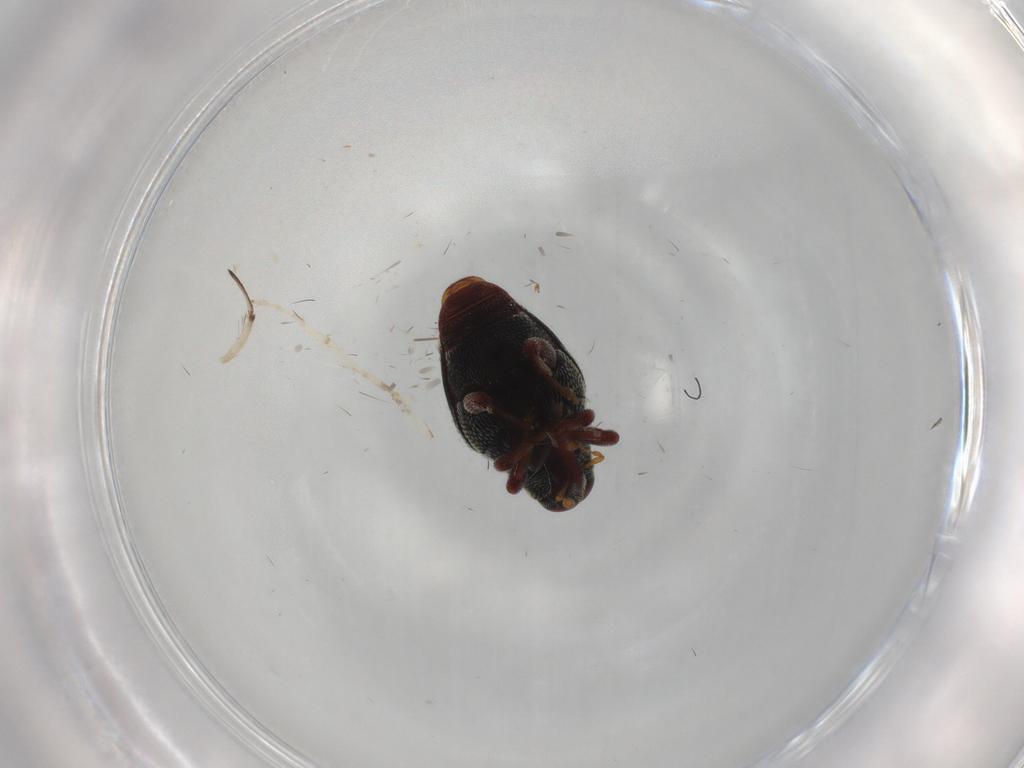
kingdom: Animalia
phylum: Arthropoda
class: Insecta
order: Coleoptera
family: Curculionidae
